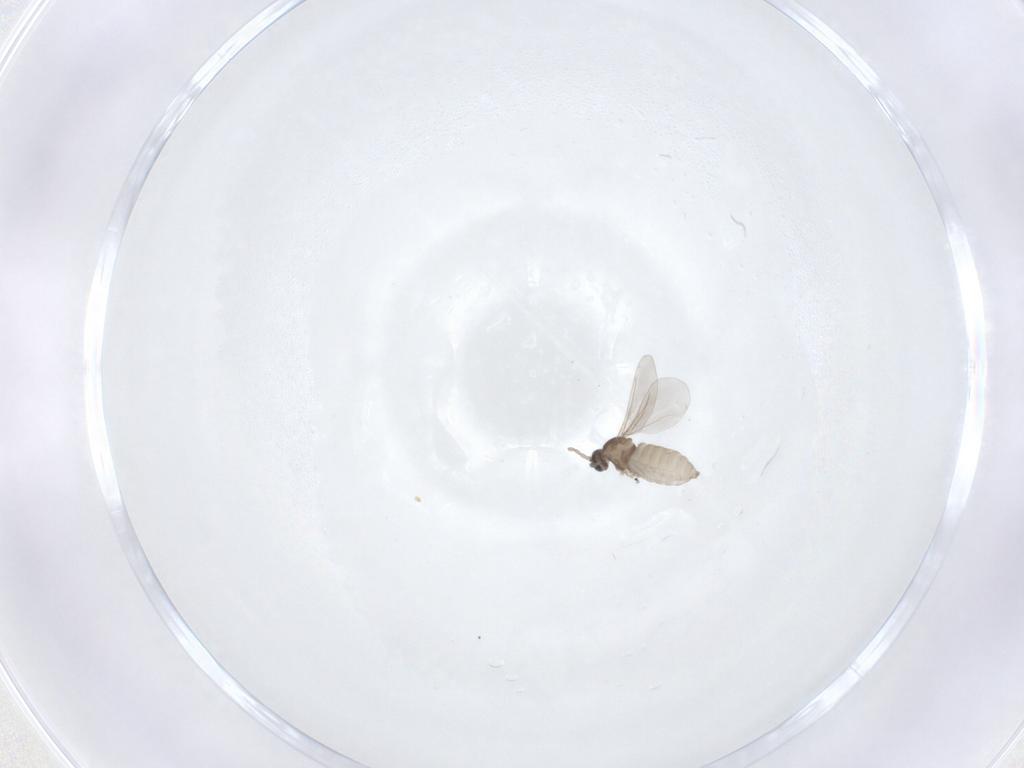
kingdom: Animalia
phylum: Arthropoda
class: Insecta
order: Diptera
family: Cecidomyiidae
